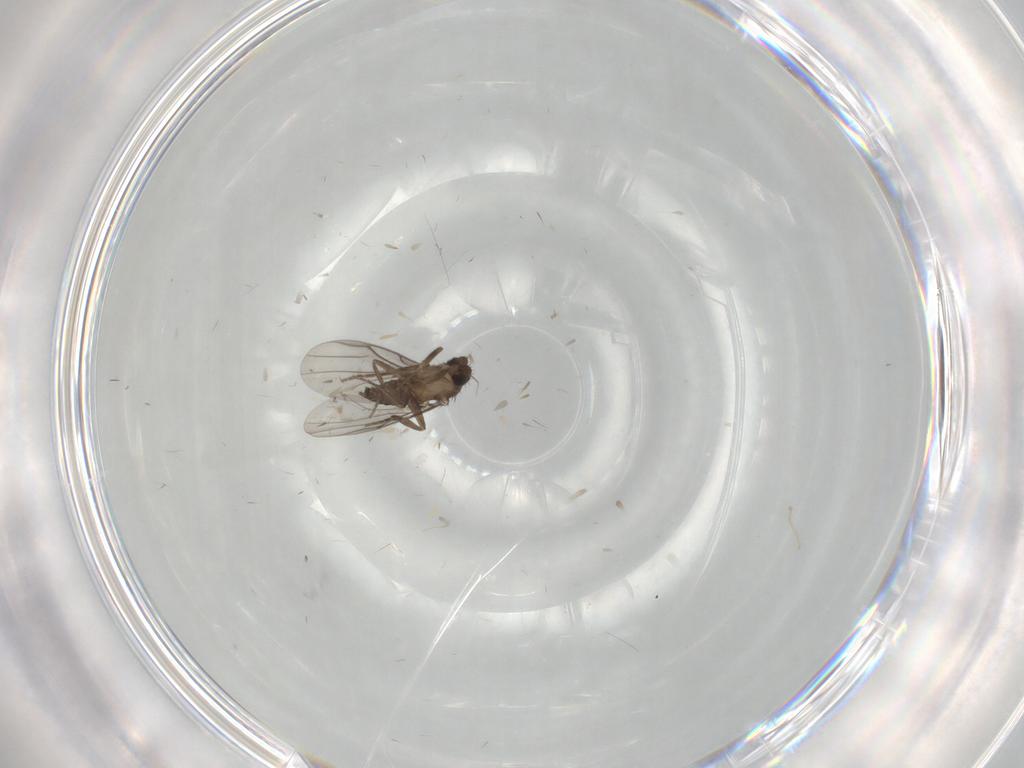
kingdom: Animalia
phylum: Arthropoda
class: Insecta
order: Diptera
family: Phoridae
